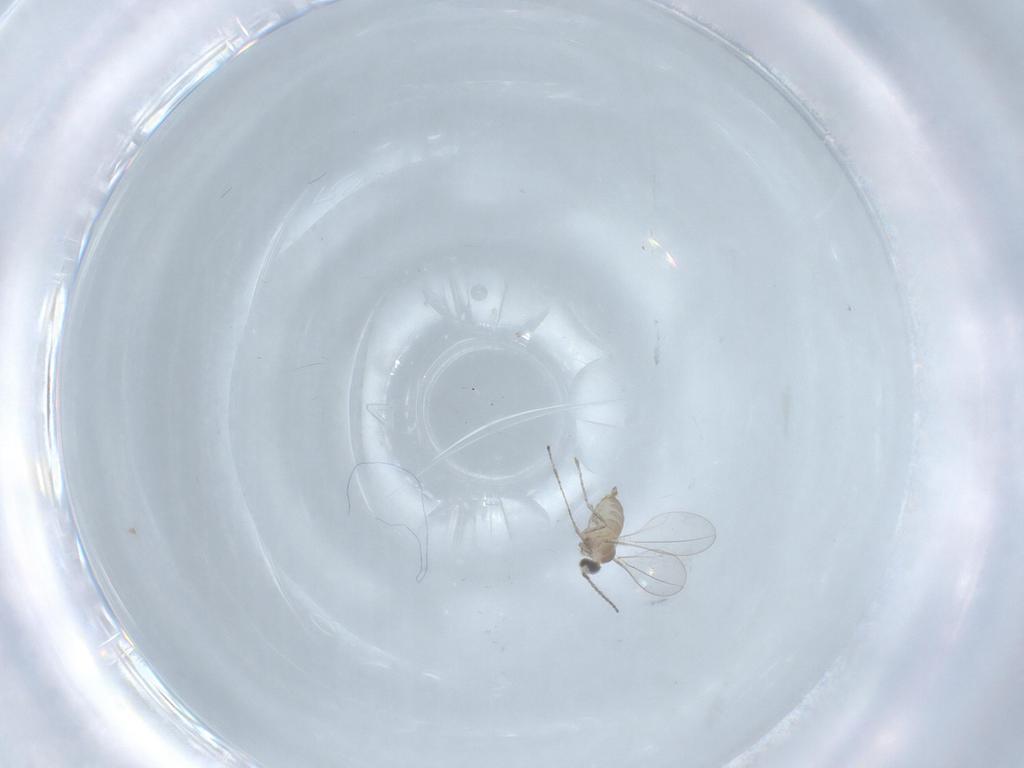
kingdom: Animalia
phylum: Arthropoda
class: Insecta
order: Diptera
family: Cecidomyiidae
